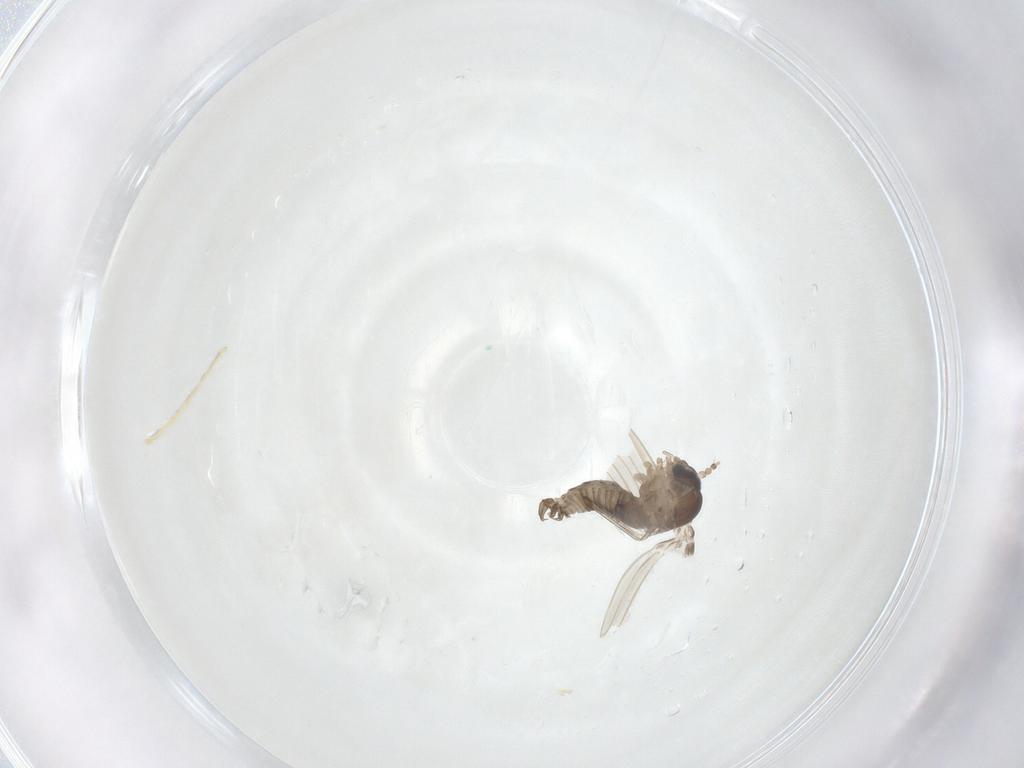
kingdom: Animalia
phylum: Arthropoda
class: Insecta
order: Diptera
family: Psychodidae
